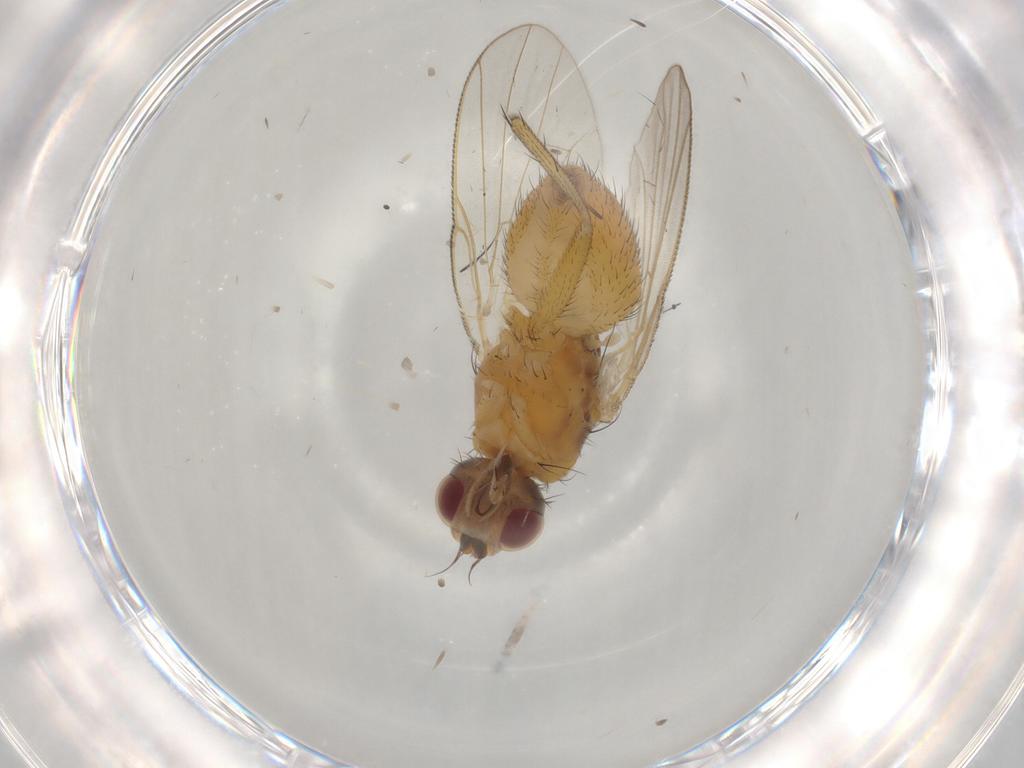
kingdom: Animalia
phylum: Arthropoda
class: Insecta
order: Diptera
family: Muscidae
